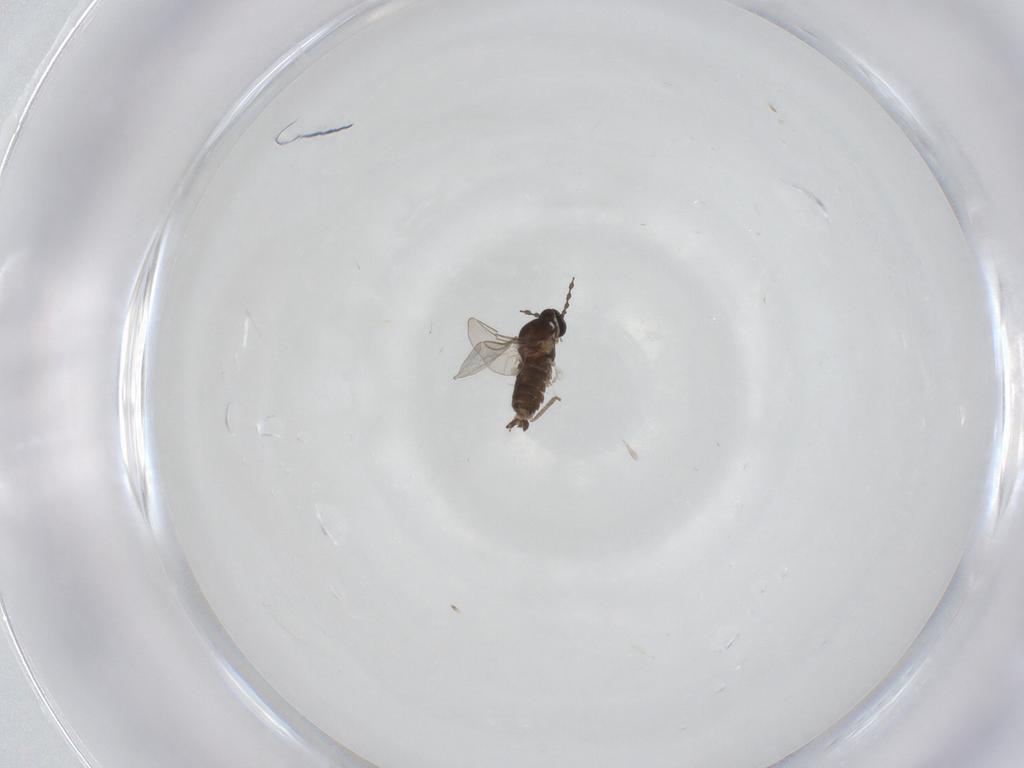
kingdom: Animalia
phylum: Arthropoda
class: Insecta
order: Diptera
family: Cecidomyiidae
